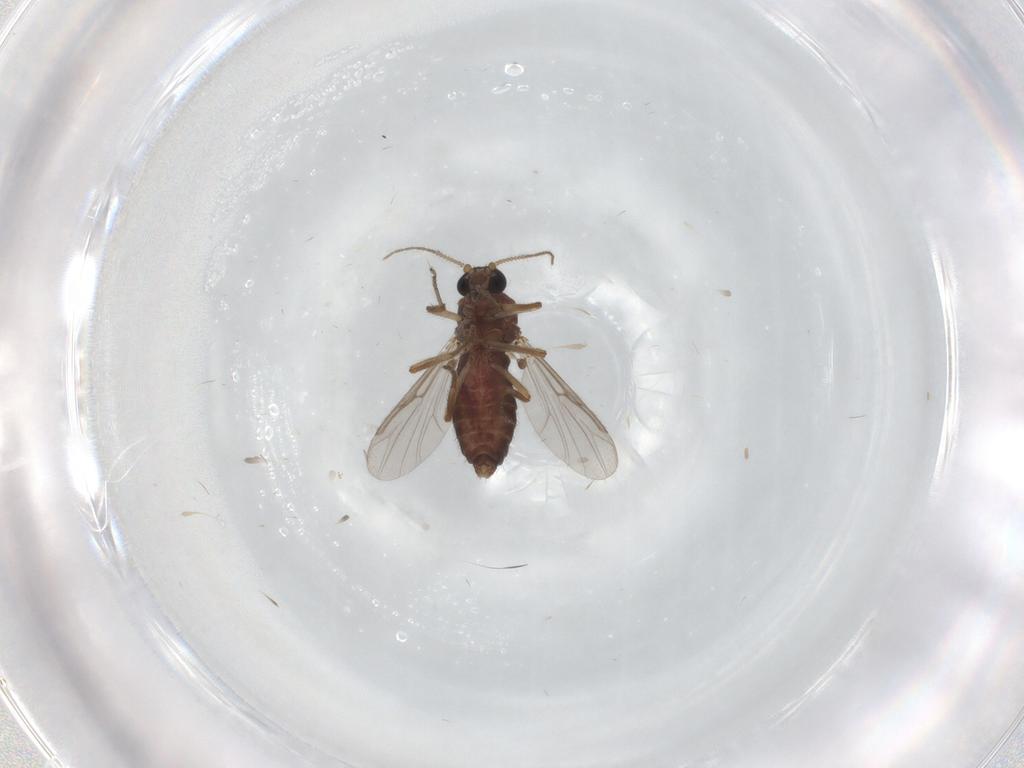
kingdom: Animalia
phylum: Arthropoda
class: Insecta
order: Diptera
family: Ceratopogonidae
